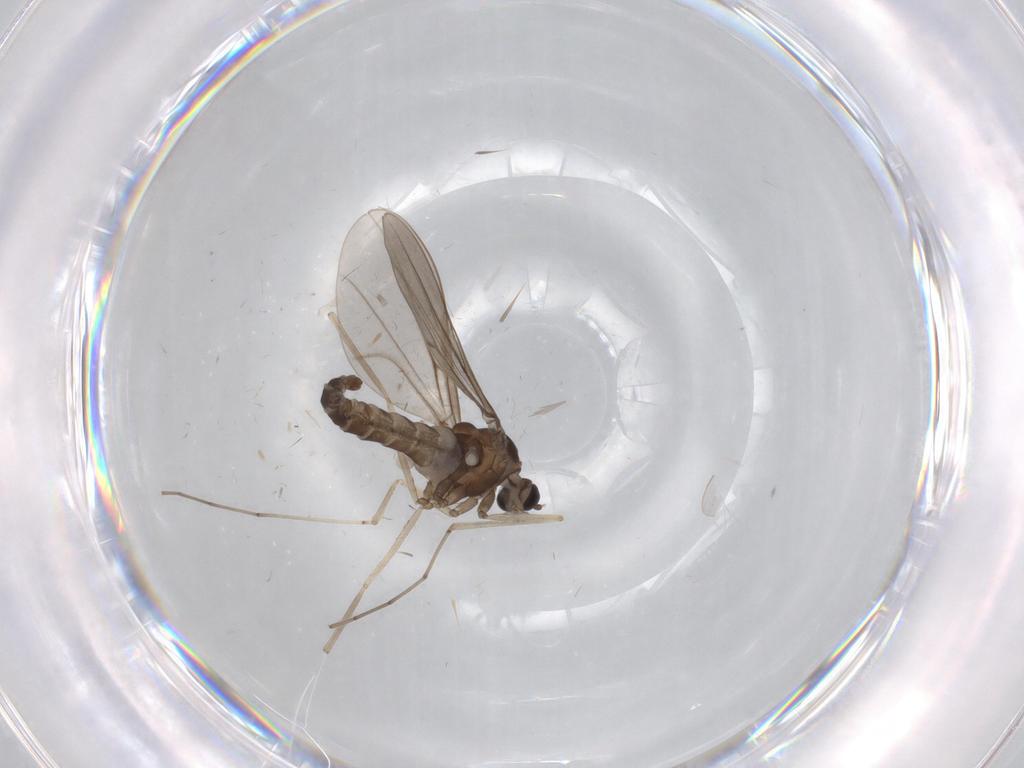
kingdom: Animalia
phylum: Arthropoda
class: Insecta
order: Diptera
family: Cecidomyiidae
